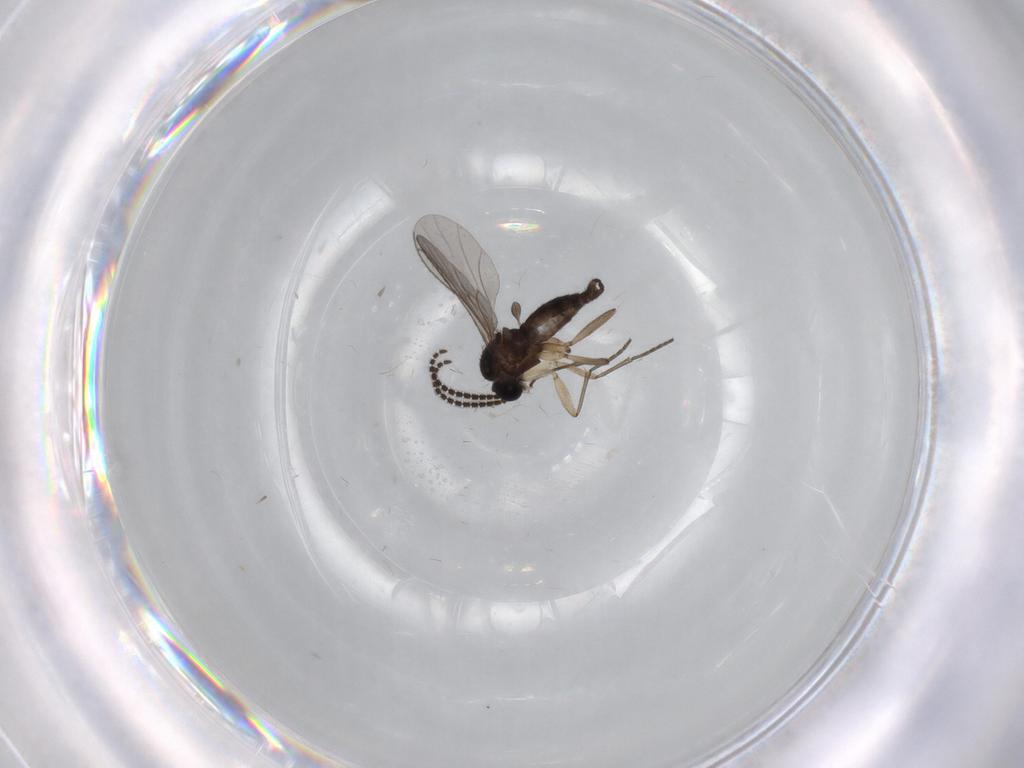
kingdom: Animalia
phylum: Arthropoda
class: Insecta
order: Diptera
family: Sciaridae
